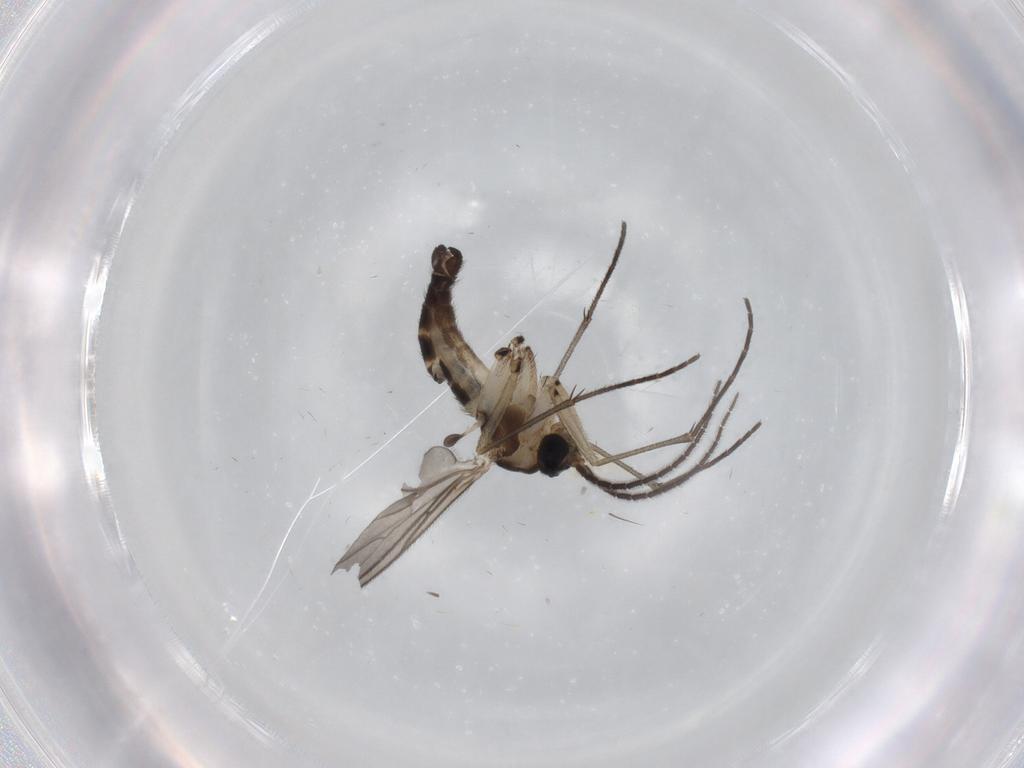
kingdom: Animalia
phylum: Arthropoda
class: Insecta
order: Diptera
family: Sciaridae
